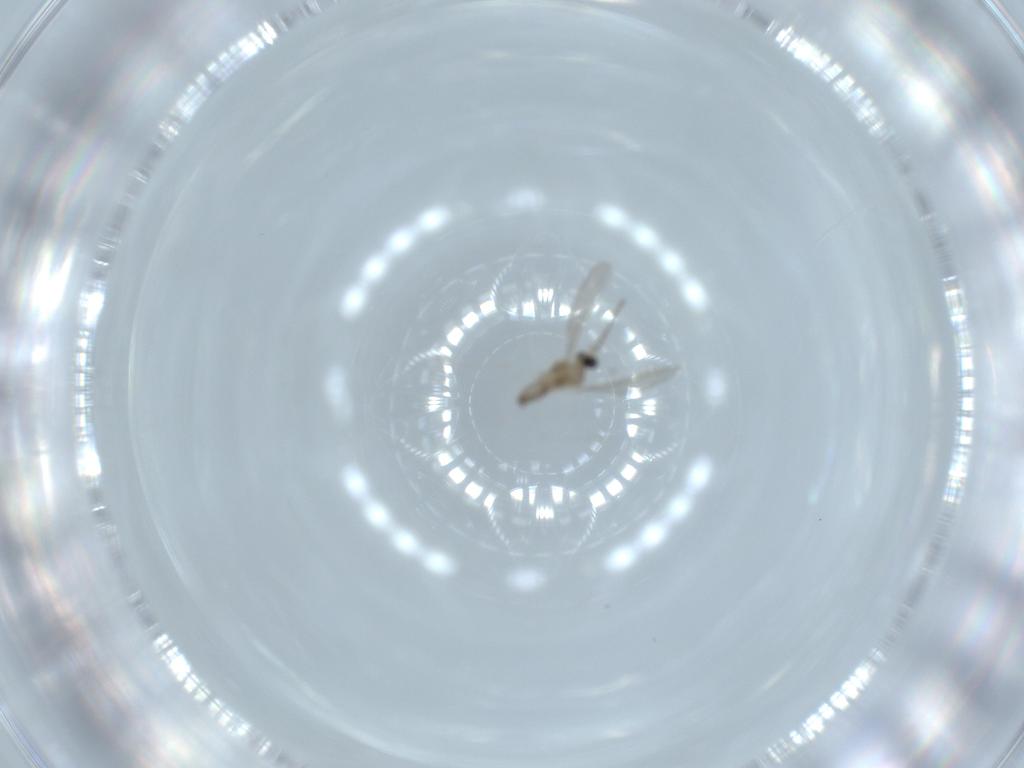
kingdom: Animalia
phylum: Arthropoda
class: Insecta
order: Diptera
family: Cecidomyiidae
